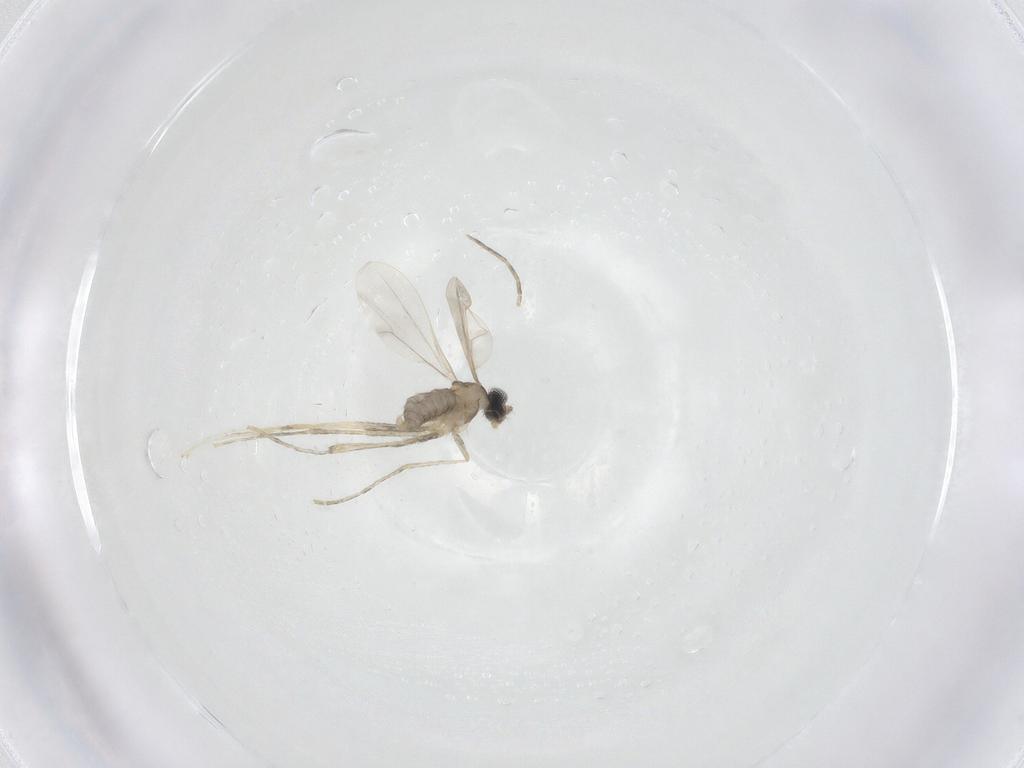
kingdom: Animalia
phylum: Arthropoda
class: Insecta
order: Diptera
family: Cecidomyiidae
